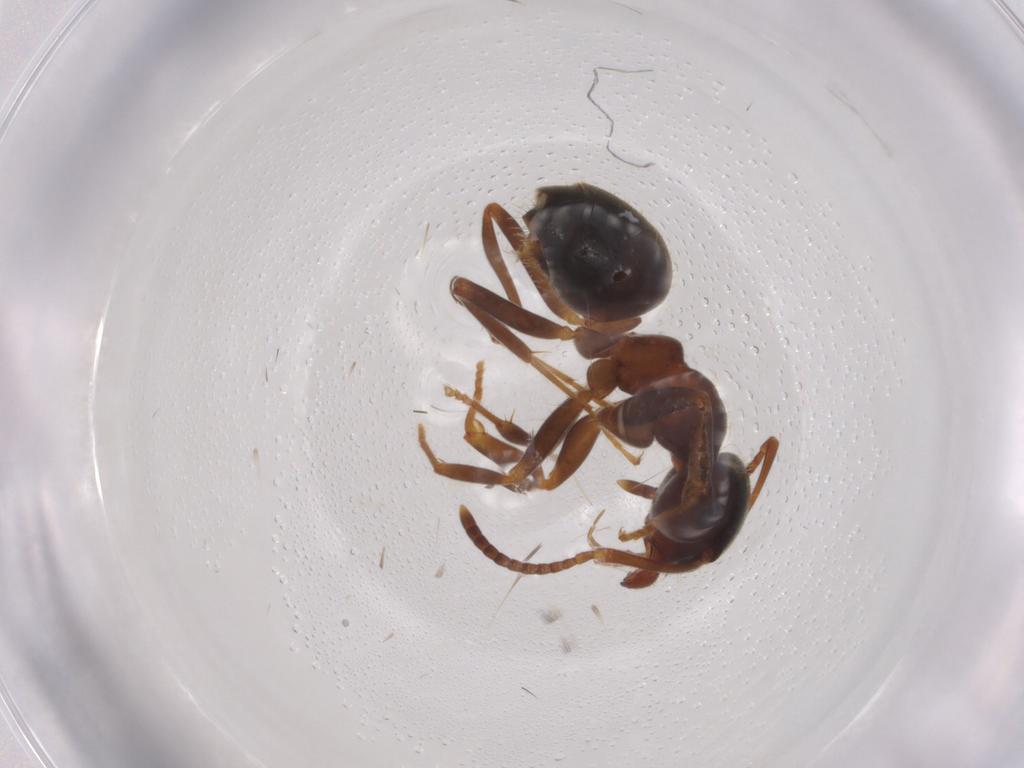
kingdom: Animalia
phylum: Arthropoda
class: Insecta
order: Hymenoptera
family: Formicidae
